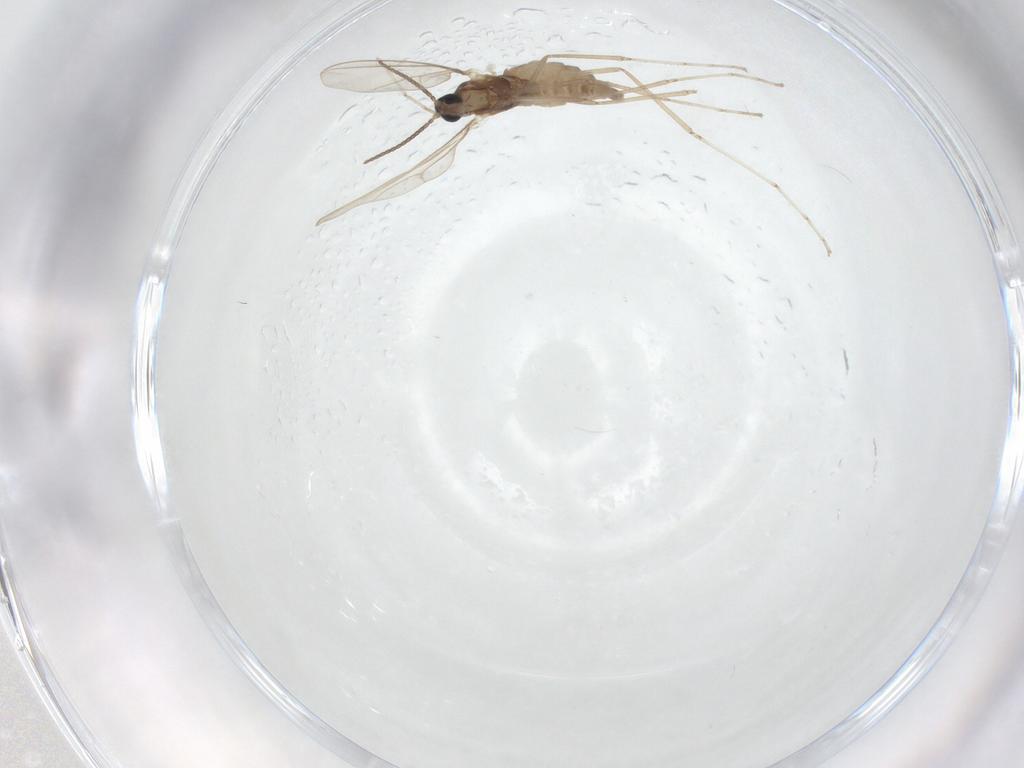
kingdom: Animalia
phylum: Arthropoda
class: Insecta
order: Diptera
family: Cecidomyiidae
